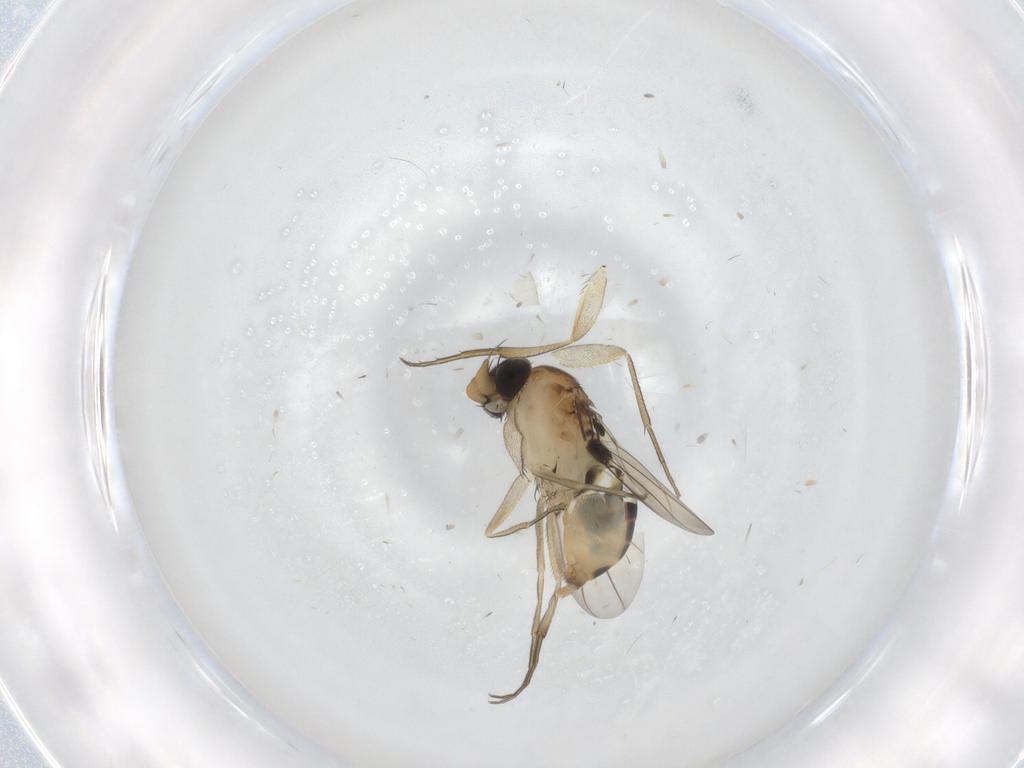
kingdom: Animalia
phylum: Arthropoda
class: Insecta
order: Diptera
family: Phoridae
